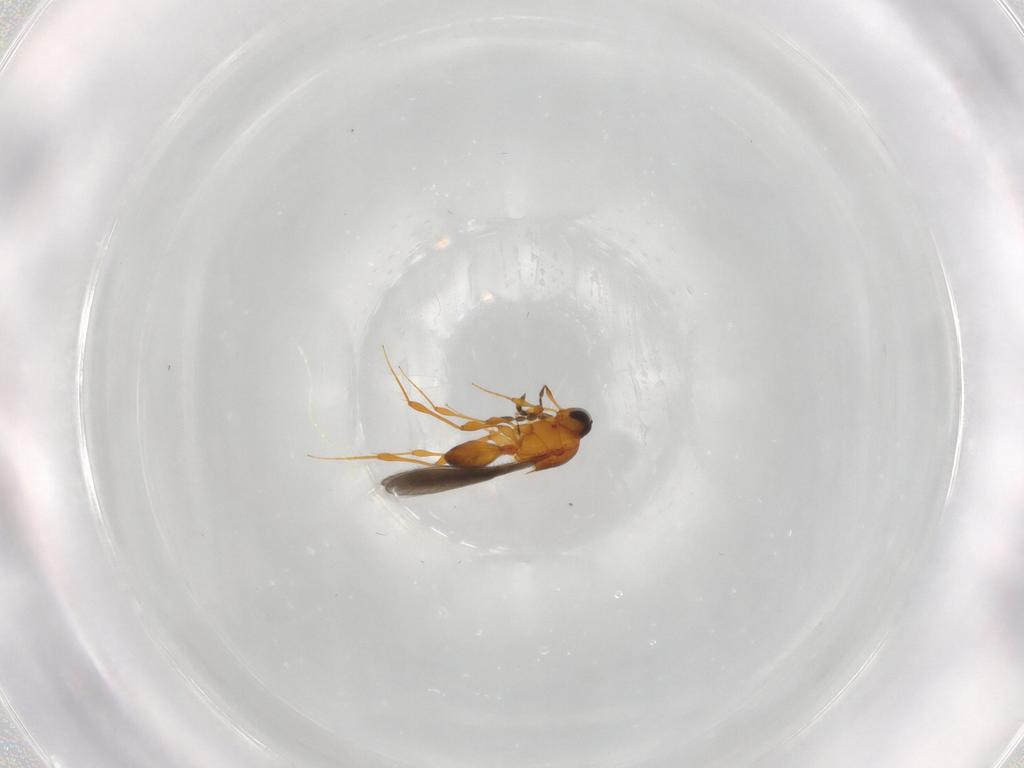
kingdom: Animalia
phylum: Arthropoda
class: Insecta
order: Hymenoptera
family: Platygastridae
